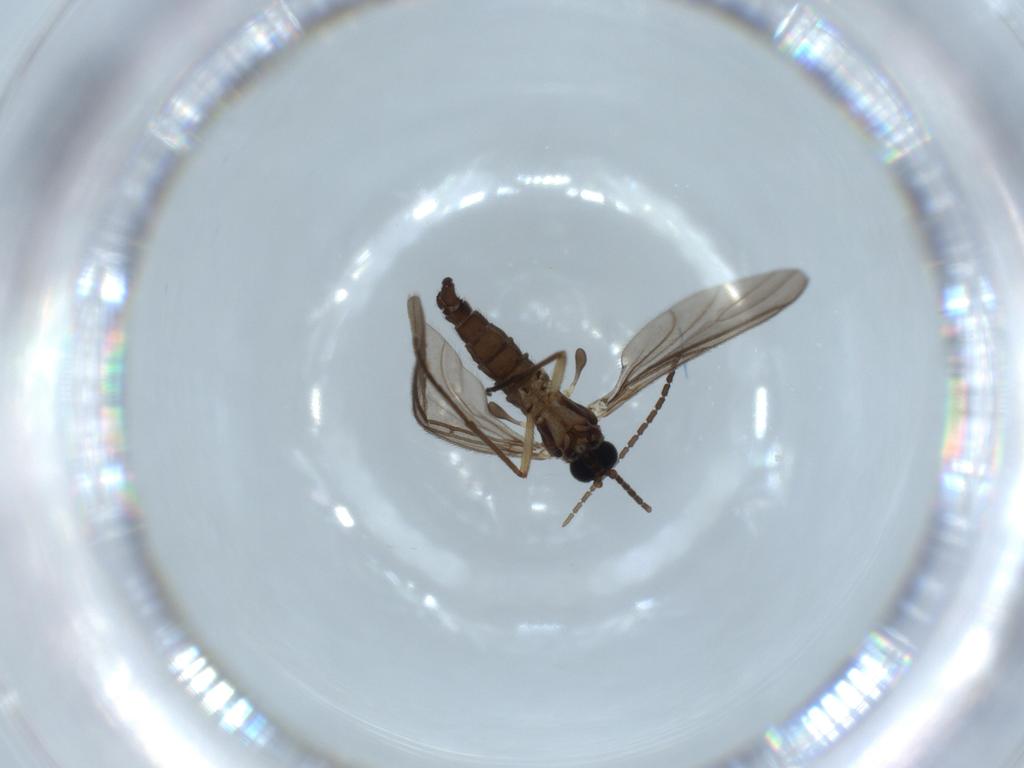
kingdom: Animalia
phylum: Arthropoda
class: Insecta
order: Diptera
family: Sciaridae
